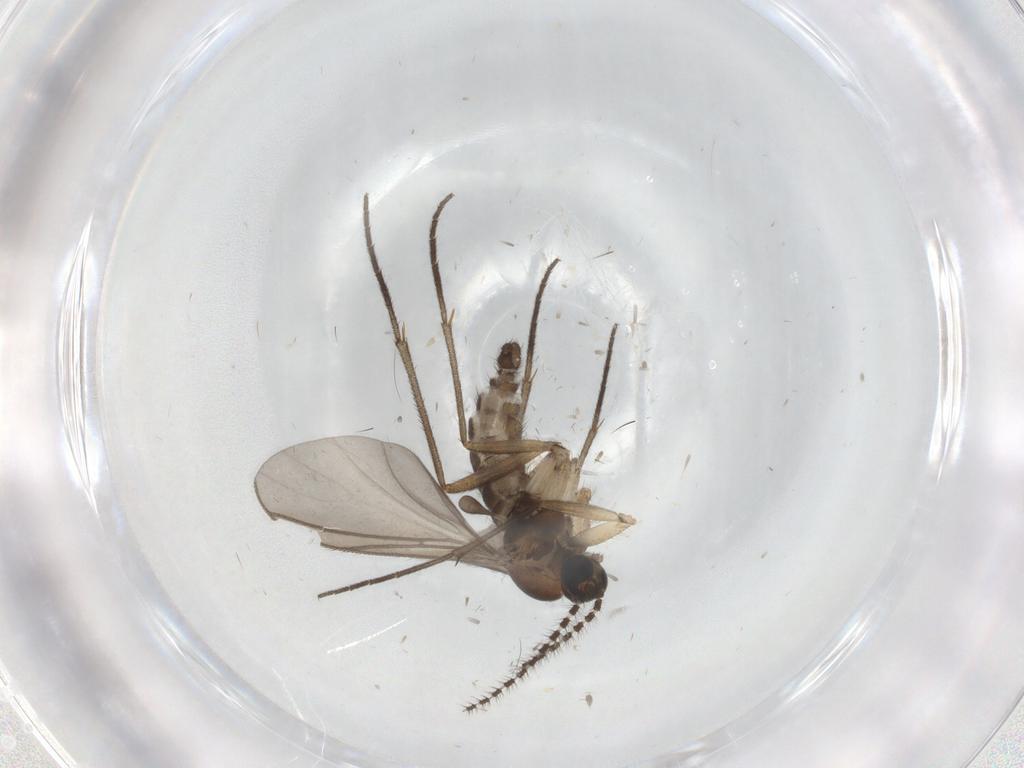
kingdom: Animalia
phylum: Arthropoda
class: Insecta
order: Diptera
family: Sciaridae
